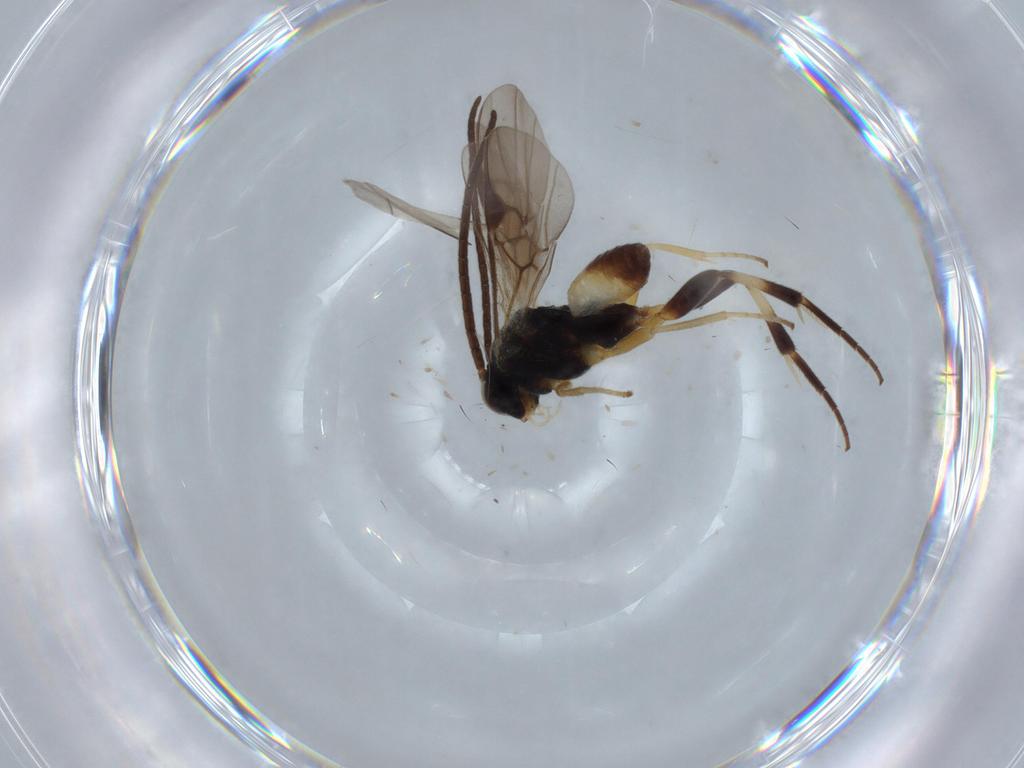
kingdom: Animalia
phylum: Arthropoda
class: Insecta
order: Hymenoptera
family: Braconidae
